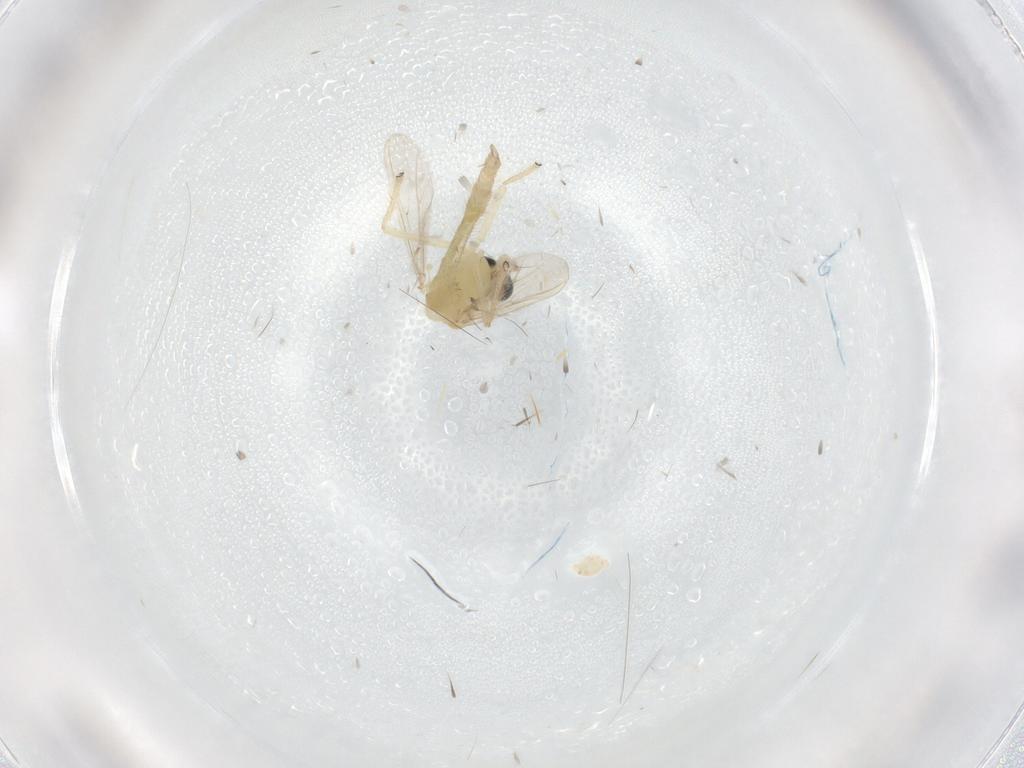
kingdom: Animalia
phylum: Arthropoda
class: Insecta
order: Diptera
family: Chironomidae
